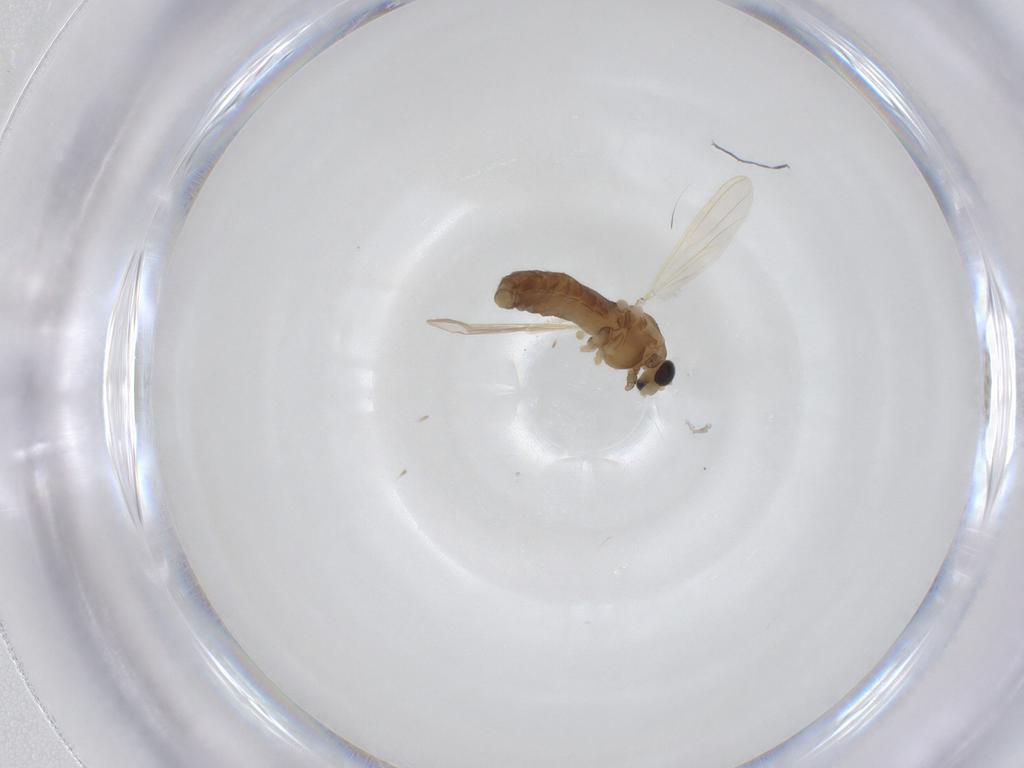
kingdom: Animalia
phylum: Arthropoda
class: Insecta
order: Diptera
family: Chironomidae
